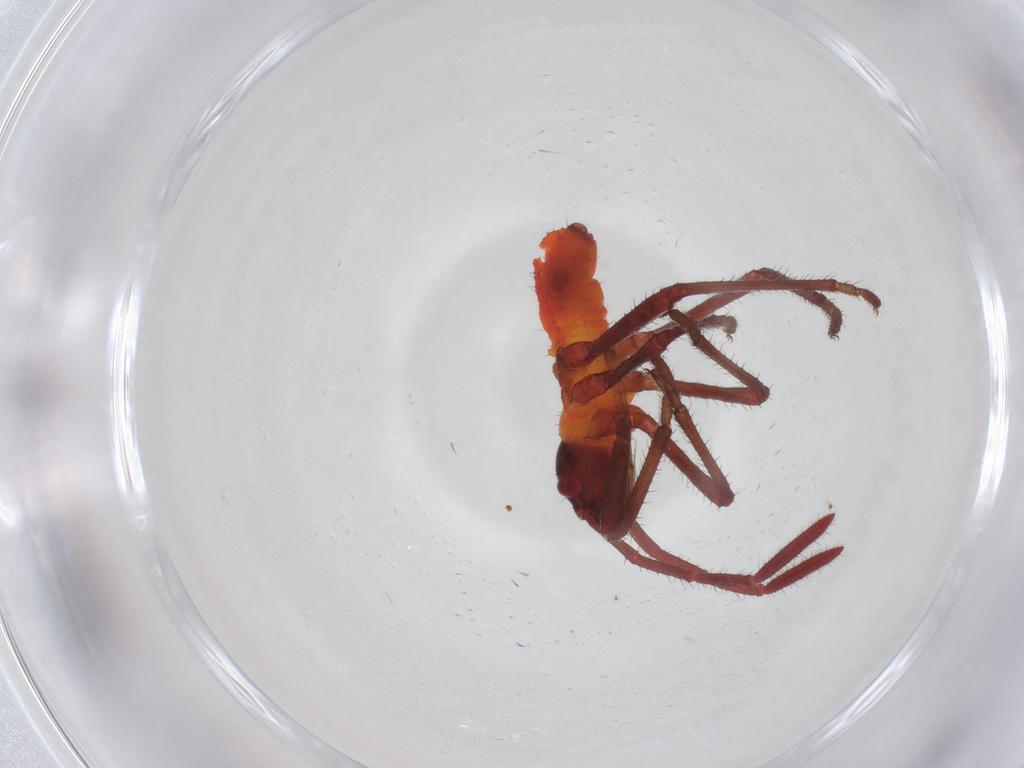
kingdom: Animalia
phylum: Arthropoda
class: Insecta
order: Hemiptera
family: Coreidae
